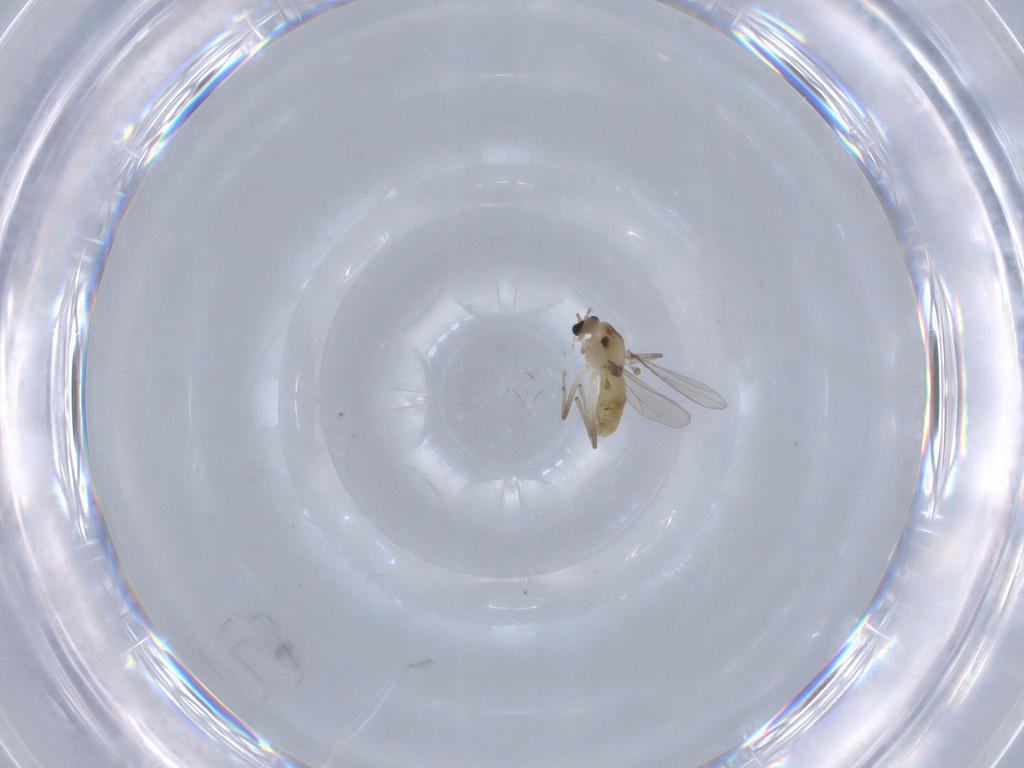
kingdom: Animalia
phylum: Arthropoda
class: Insecta
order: Diptera
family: Chironomidae
